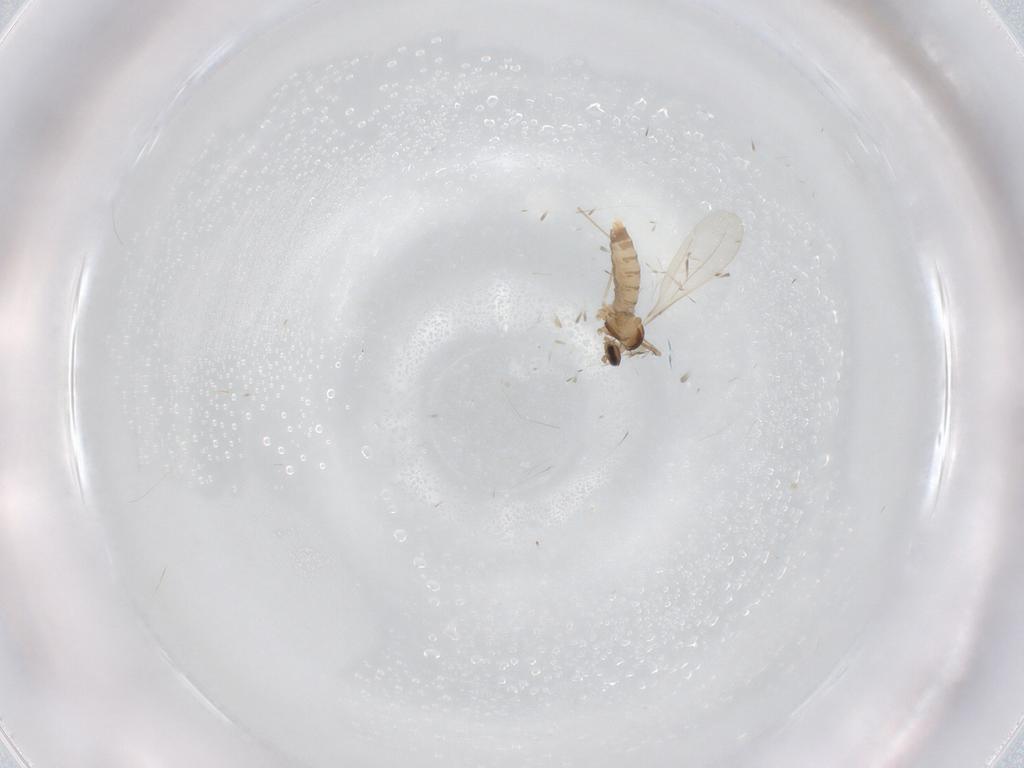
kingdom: Animalia
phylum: Arthropoda
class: Insecta
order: Diptera
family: Cecidomyiidae
